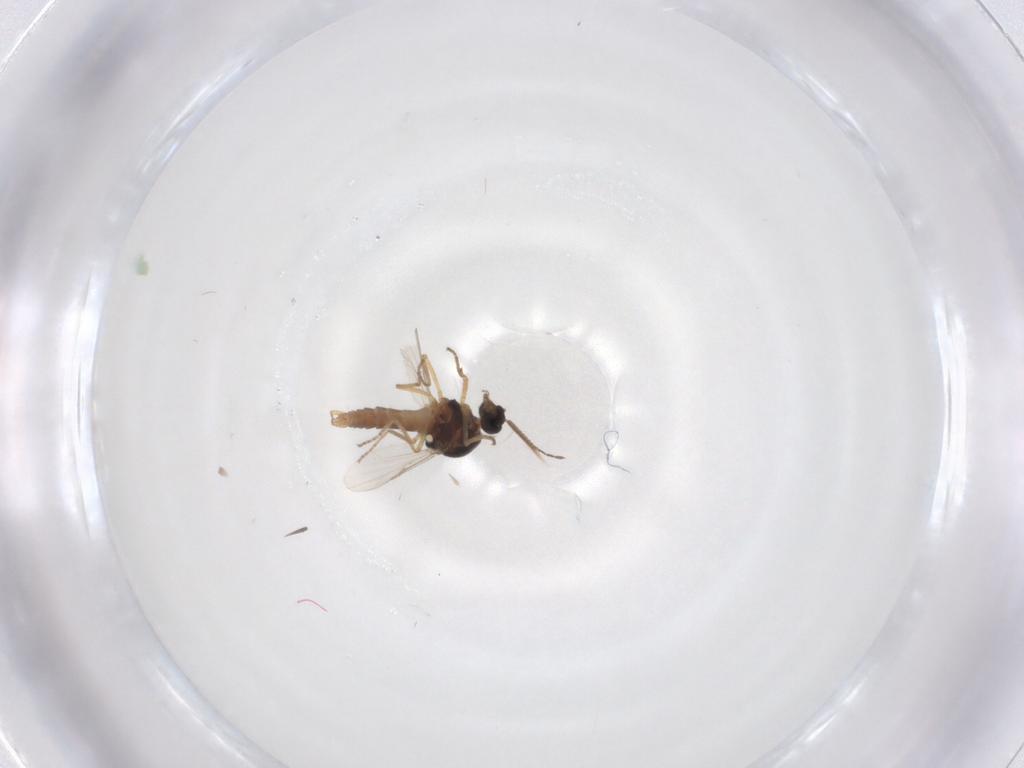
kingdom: Animalia
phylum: Arthropoda
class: Insecta
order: Diptera
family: Ceratopogonidae
